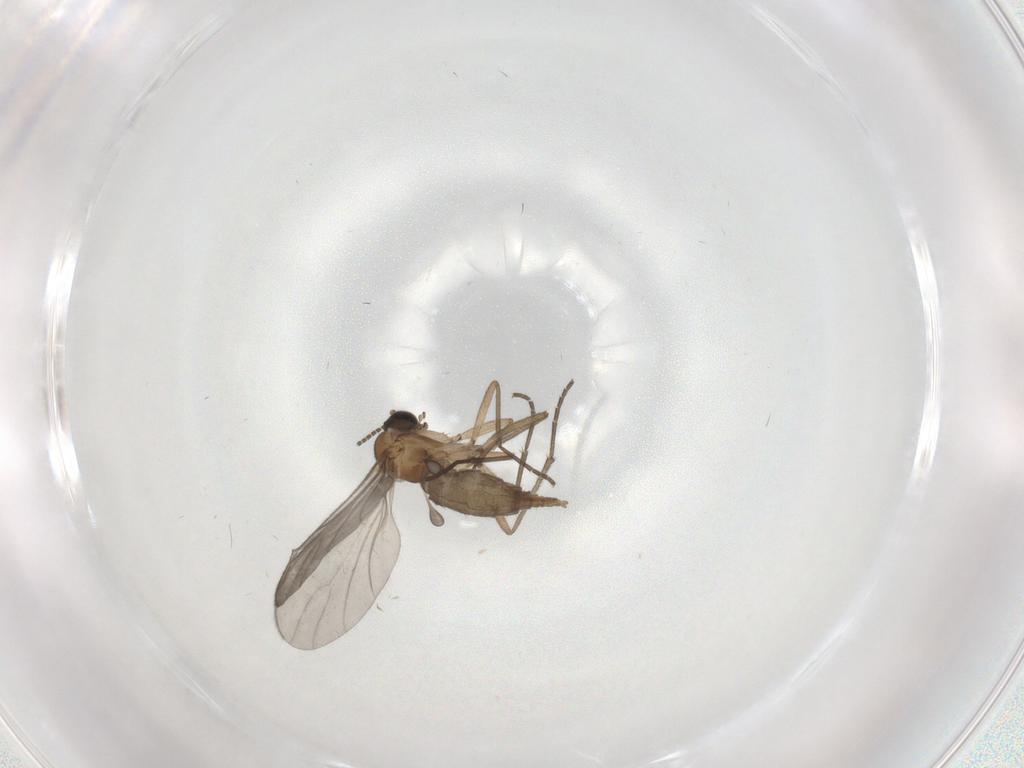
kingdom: Animalia
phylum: Arthropoda
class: Insecta
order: Diptera
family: Sciaridae
